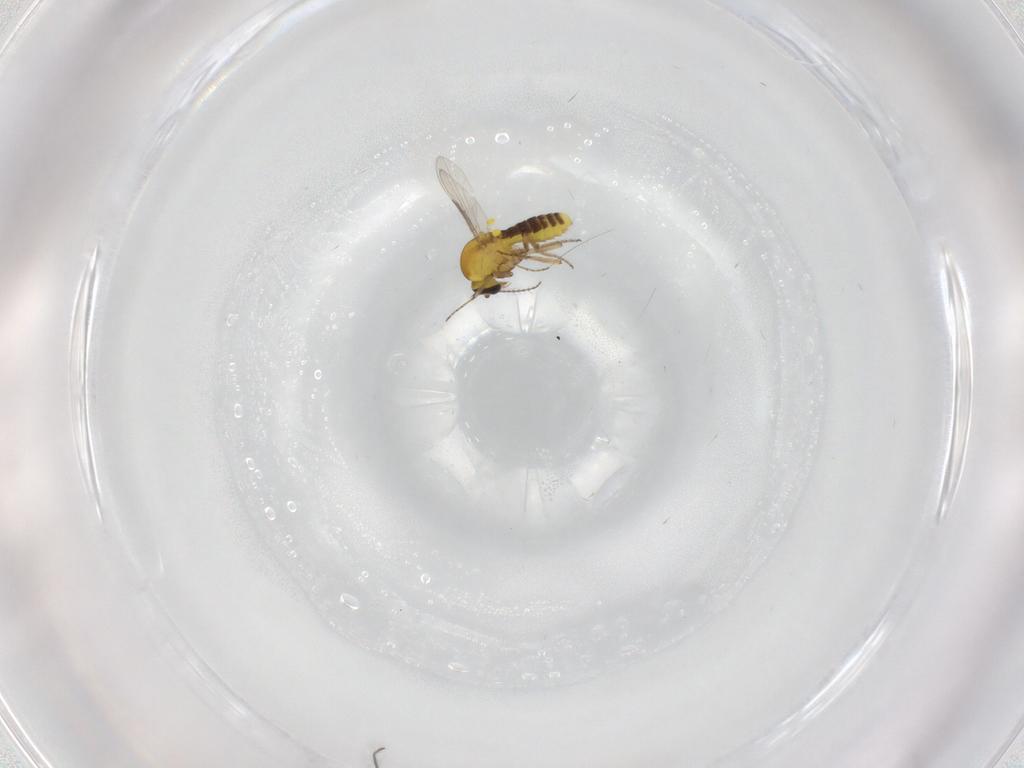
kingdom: Animalia
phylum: Arthropoda
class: Insecta
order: Diptera
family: Ceratopogonidae
